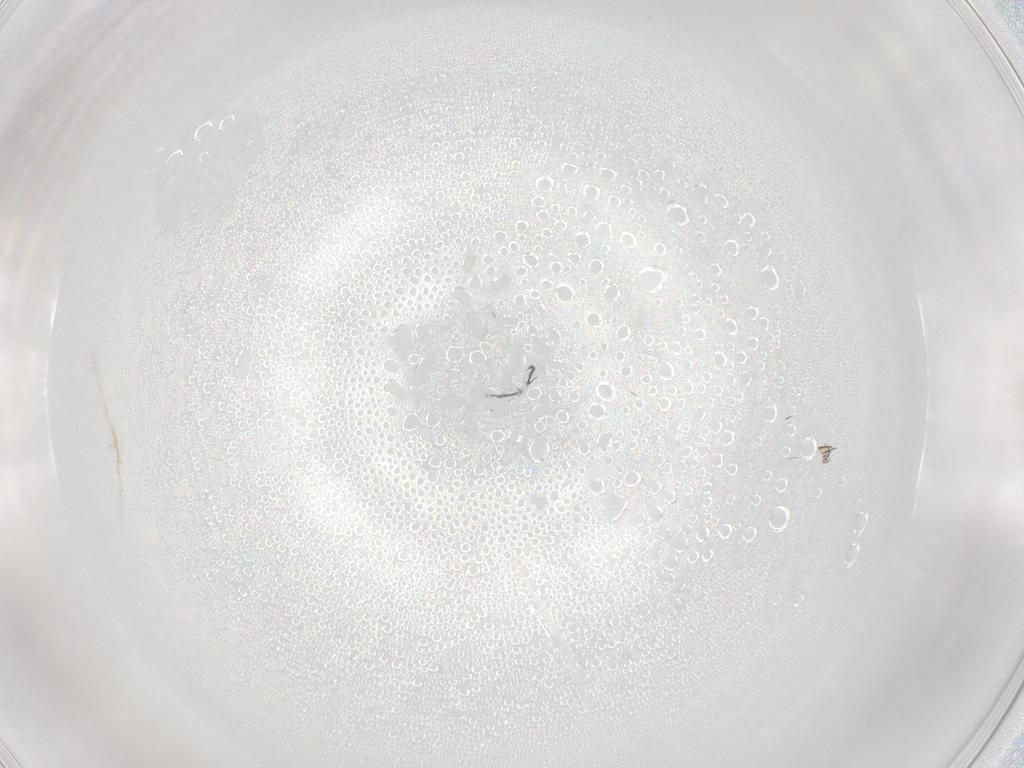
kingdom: Animalia
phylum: Arthropoda
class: Insecta
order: Diptera
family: Phoridae
